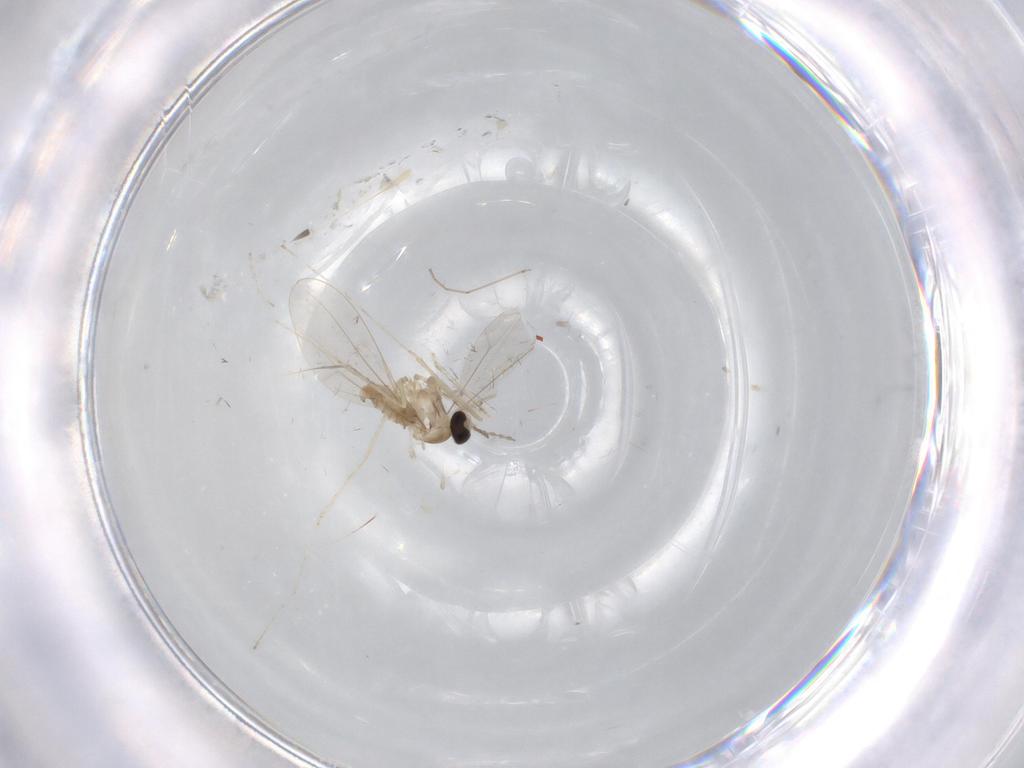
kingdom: Animalia
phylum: Arthropoda
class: Insecta
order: Diptera
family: Cecidomyiidae
